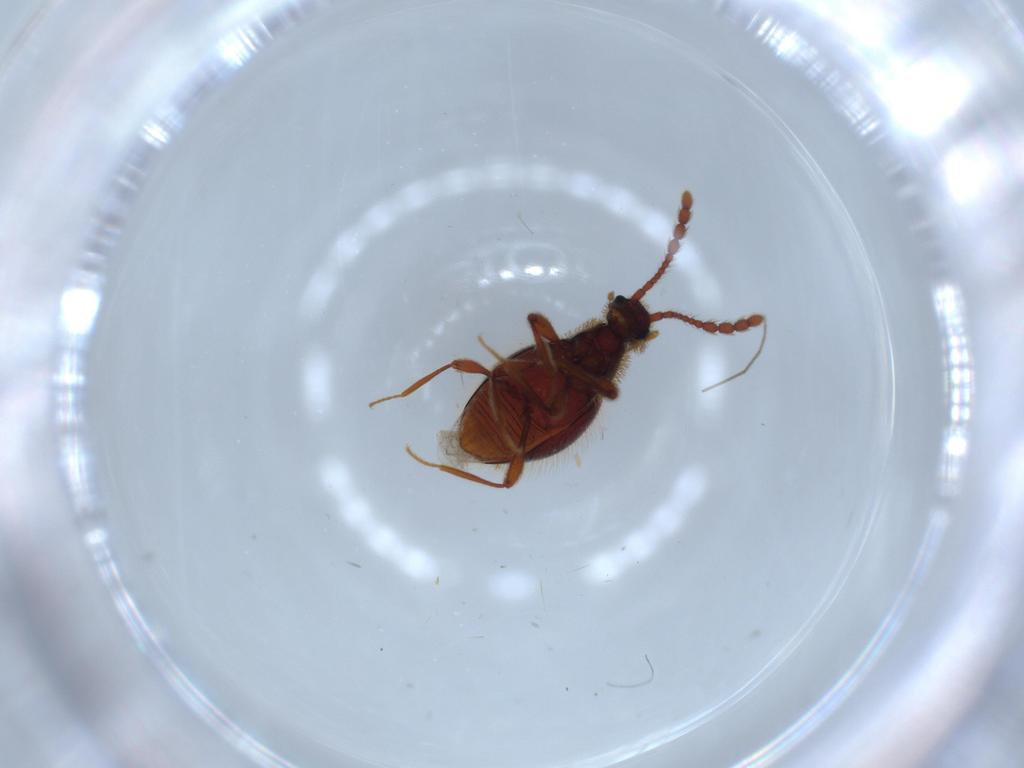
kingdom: Animalia
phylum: Arthropoda
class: Insecta
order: Coleoptera
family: Staphylinidae
